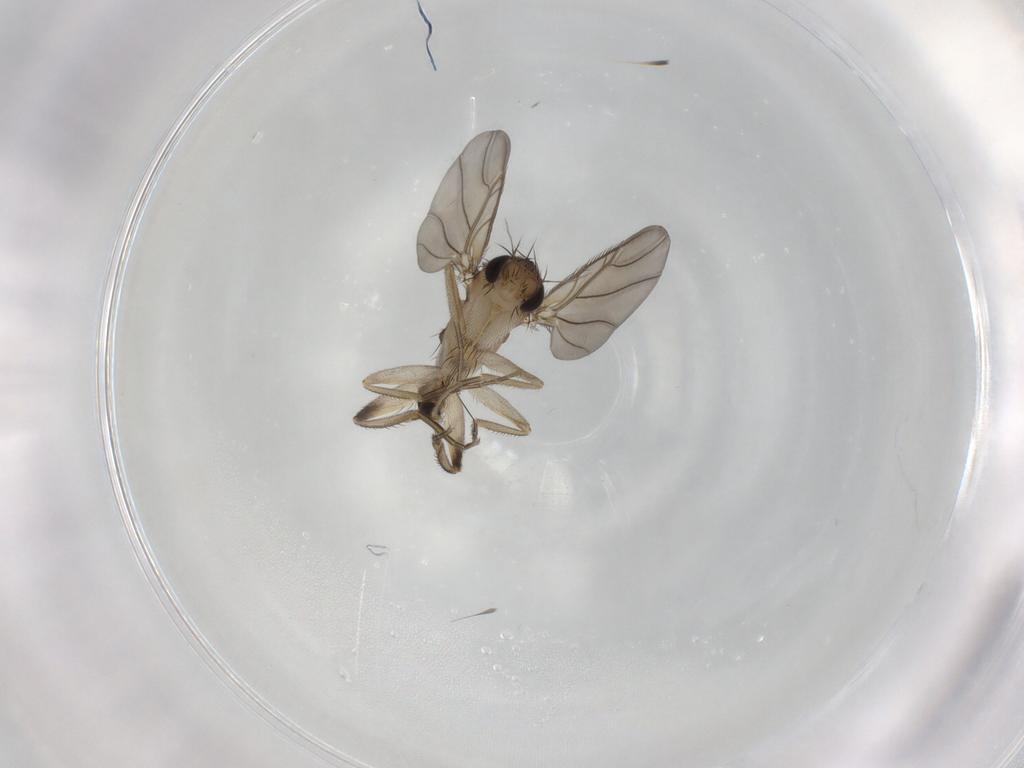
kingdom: Animalia
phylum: Arthropoda
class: Insecta
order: Diptera
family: Phoridae
